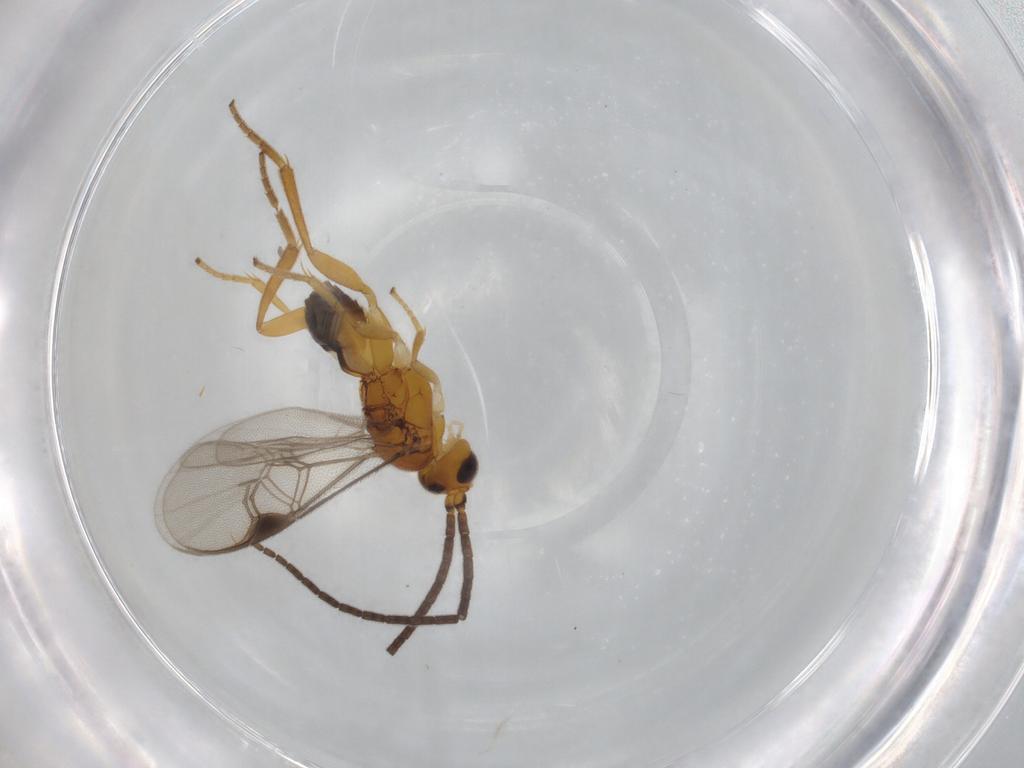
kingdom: Animalia
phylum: Arthropoda
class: Insecta
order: Hymenoptera
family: Braconidae
